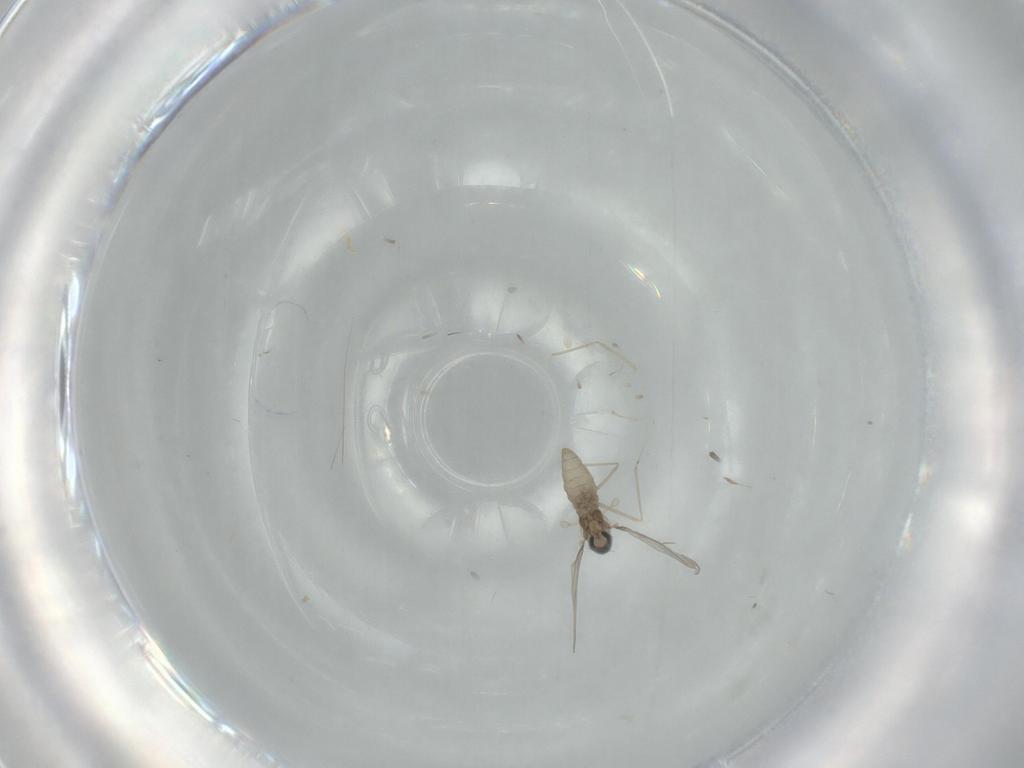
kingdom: Animalia
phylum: Arthropoda
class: Insecta
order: Diptera
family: Cecidomyiidae
